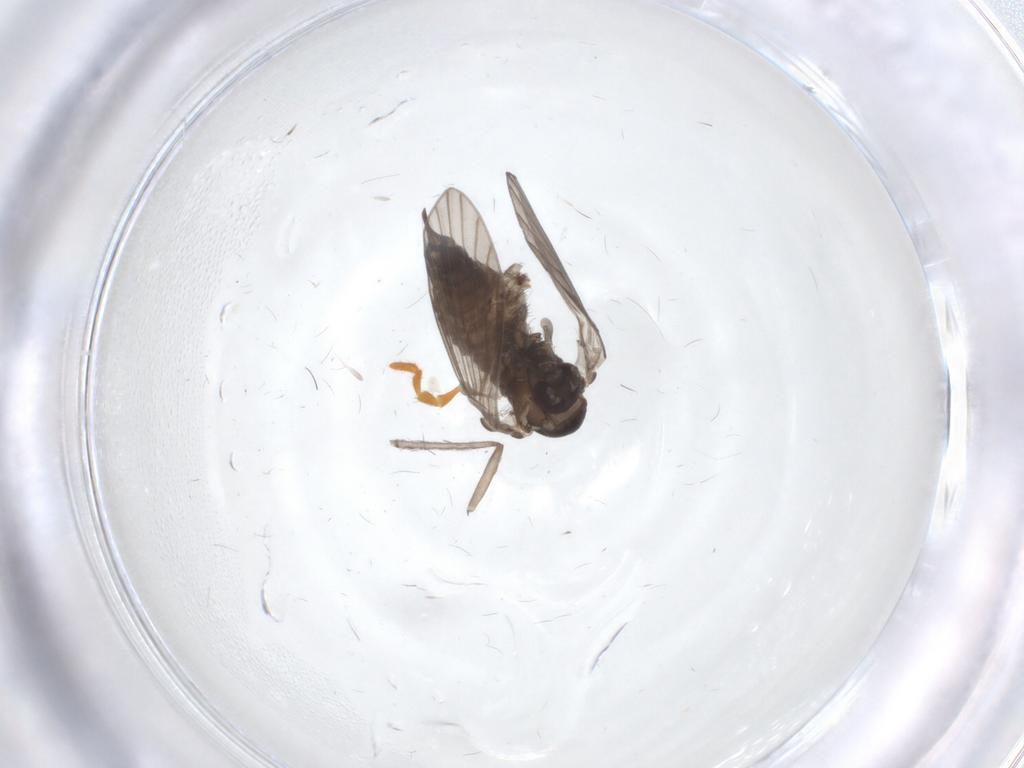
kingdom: Animalia
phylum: Arthropoda
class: Insecta
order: Diptera
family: Psychodidae
